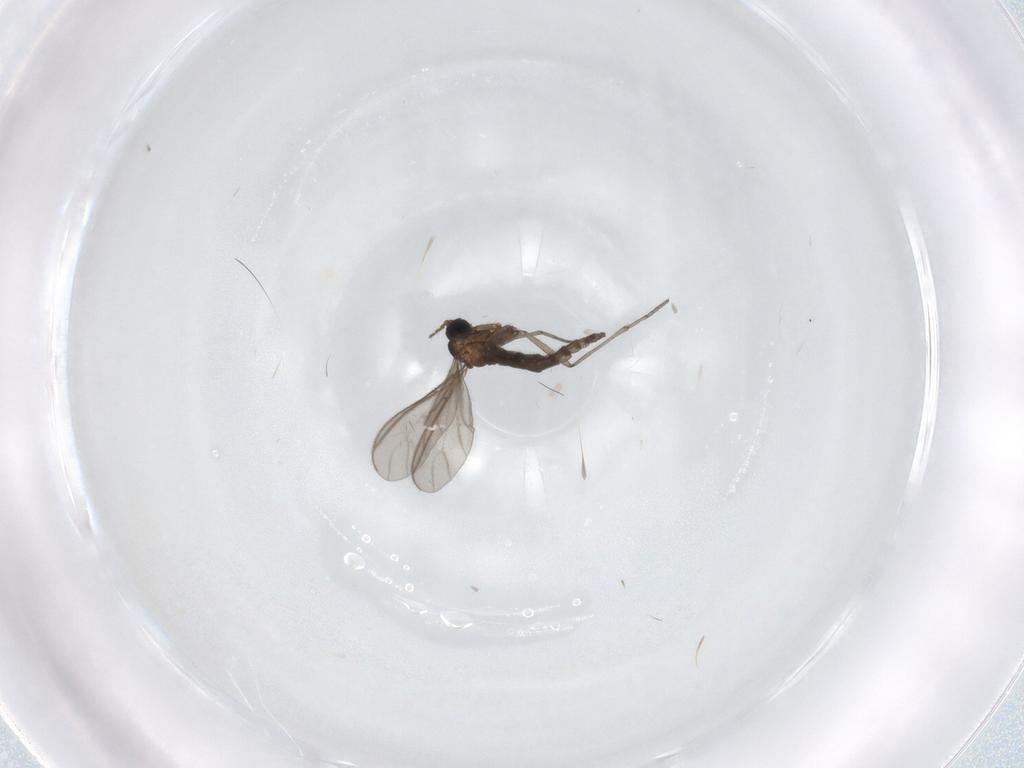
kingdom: Animalia
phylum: Arthropoda
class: Insecta
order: Diptera
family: Sciaridae
